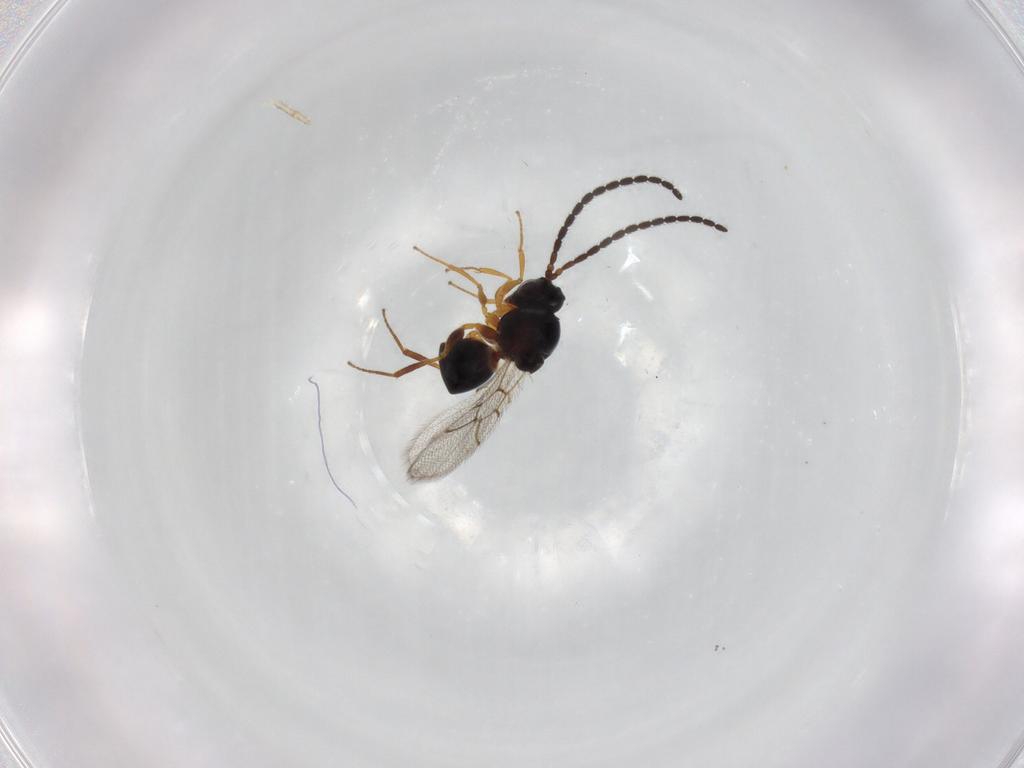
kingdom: Animalia
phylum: Arthropoda
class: Insecta
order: Hymenoptera
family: Figitidae
